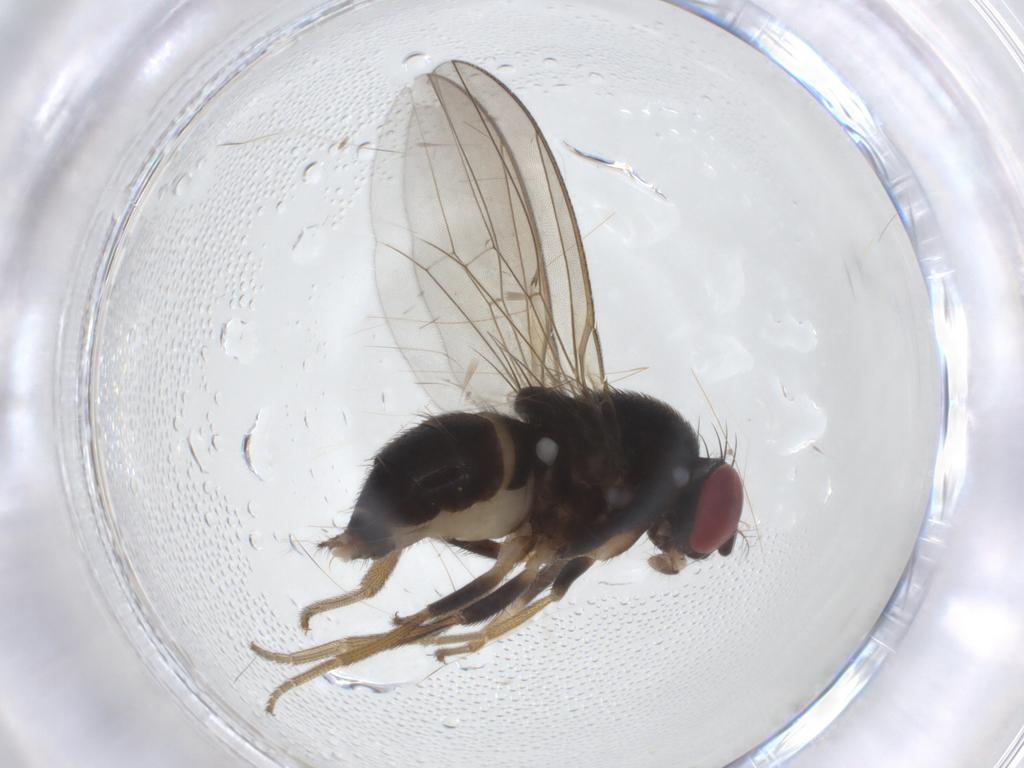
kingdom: Animalia
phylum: Arthropoda
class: Insecta
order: Diptera
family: Drosophilidae
